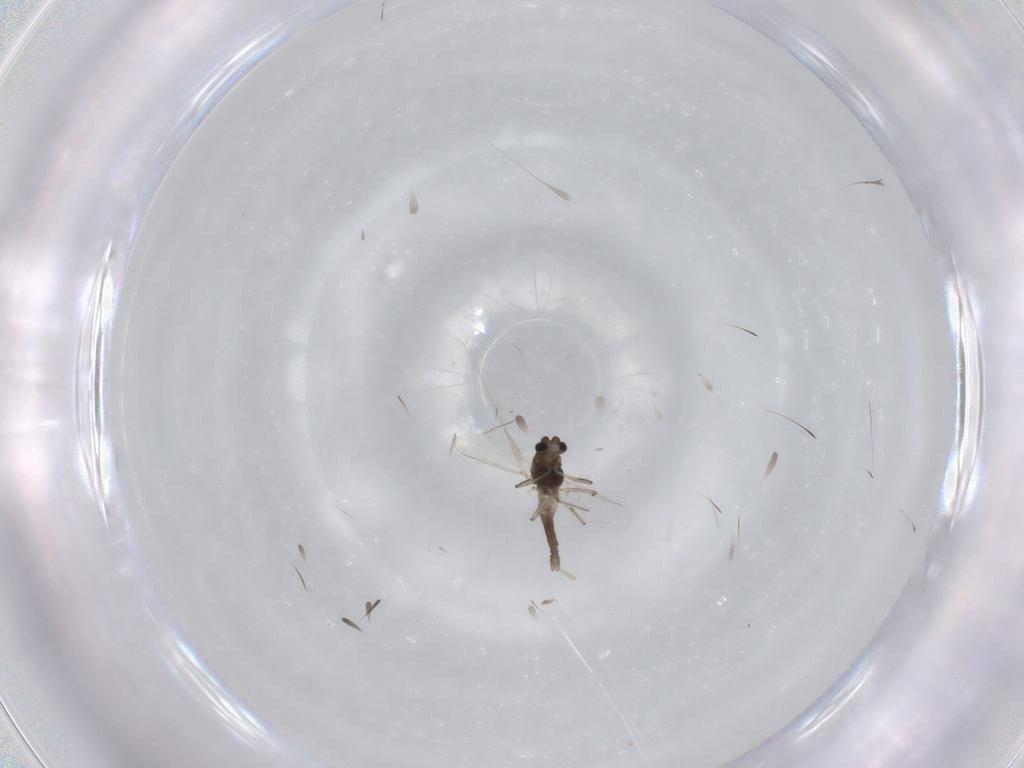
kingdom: Animalia
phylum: Arthropoda
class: Insecta
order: Diptera
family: Chironomidae
